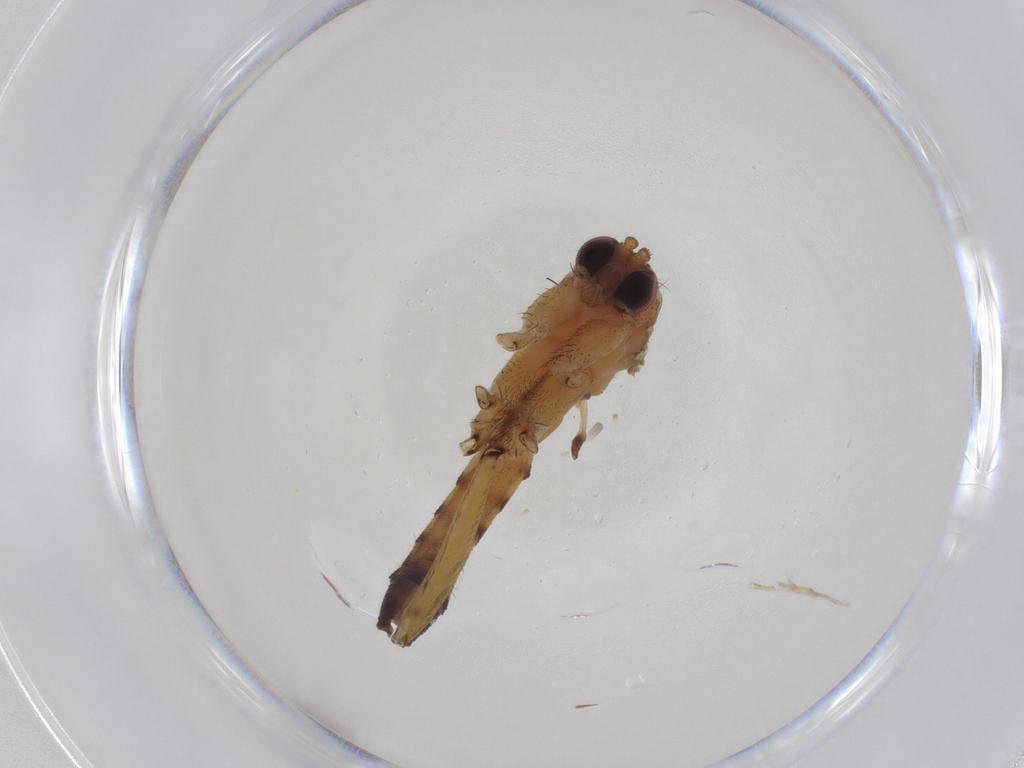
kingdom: Animalia
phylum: Arthropoda
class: Insecta
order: Diptera
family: Mycetophilidae
